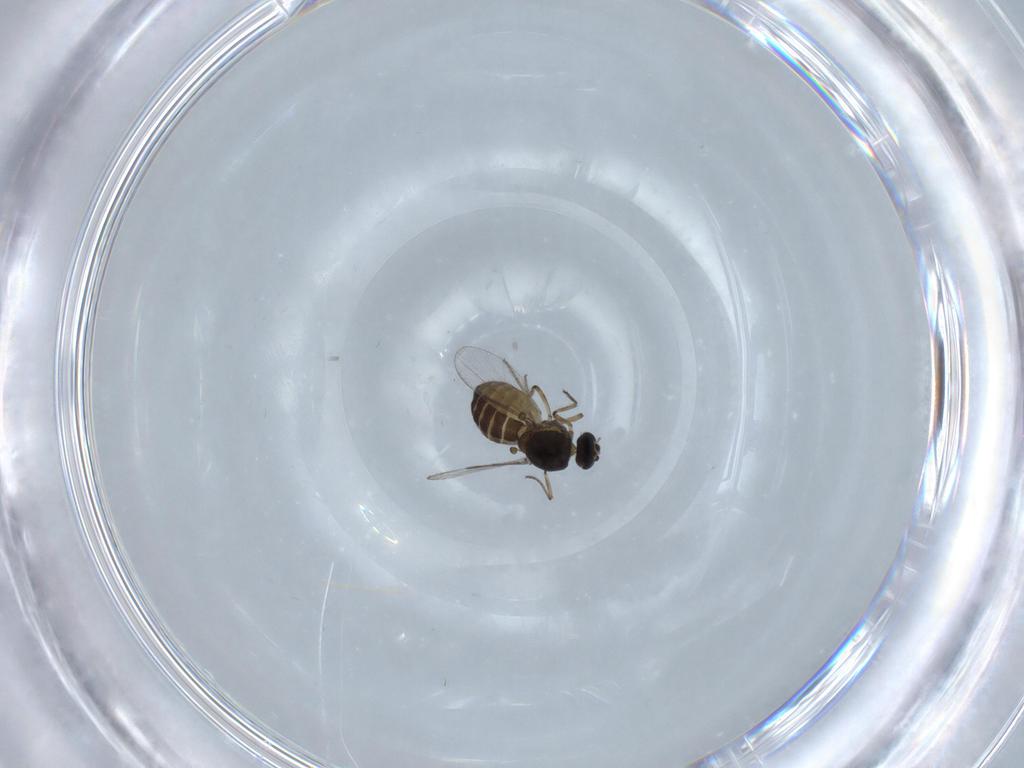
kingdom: Animalia
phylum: Arthropoda
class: Insecta
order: Diptera
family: Ceratopogonidae
